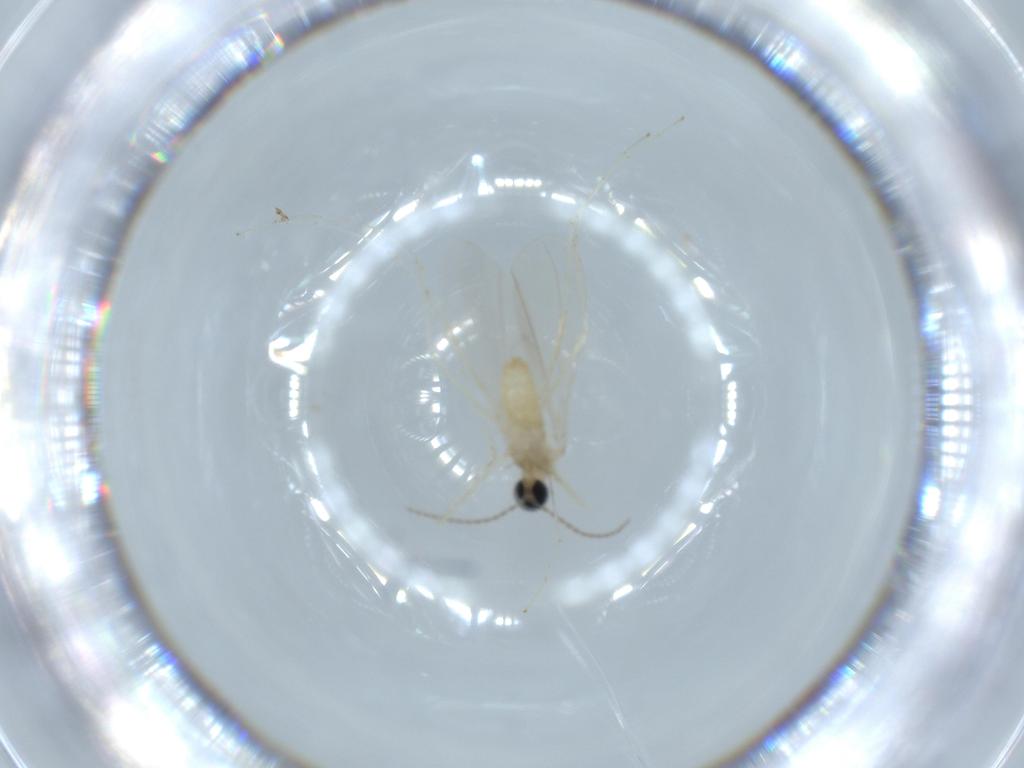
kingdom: Animalia
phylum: Arthropoda
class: Insecta
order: Diptera
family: Cecidomyiidae
